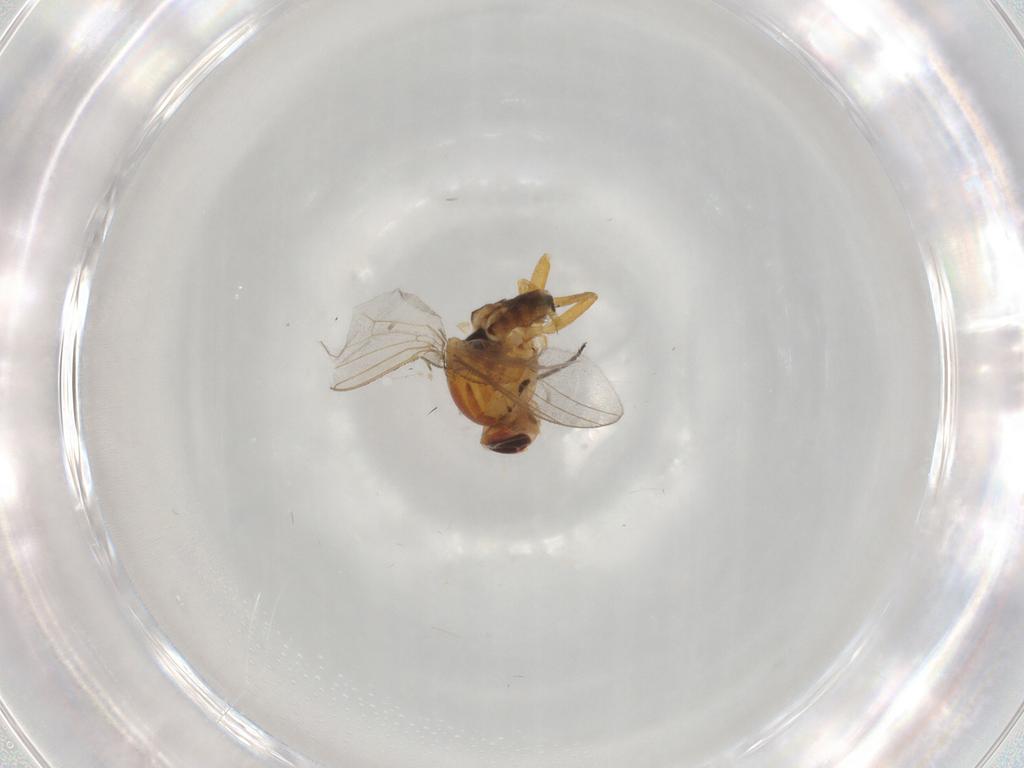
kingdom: Animalia
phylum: Arthropoda
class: Insecta
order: Diptera
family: Chloropidae
